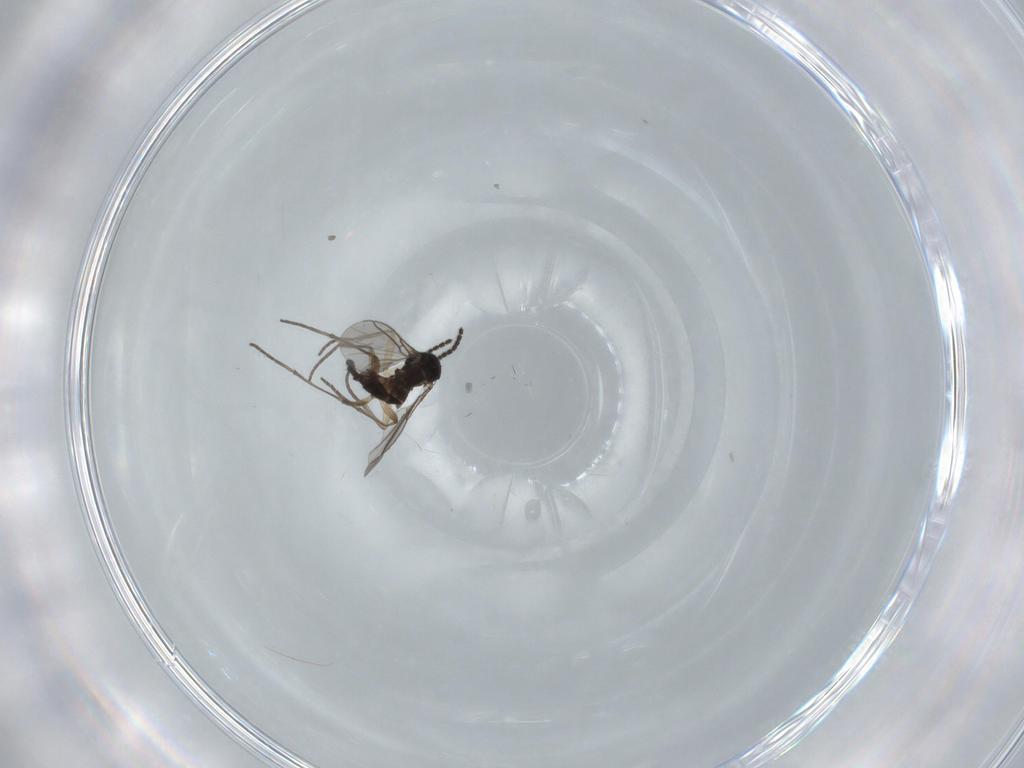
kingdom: Animalia
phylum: Arthropoda
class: Insecta
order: Diptera
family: Sciaridae
